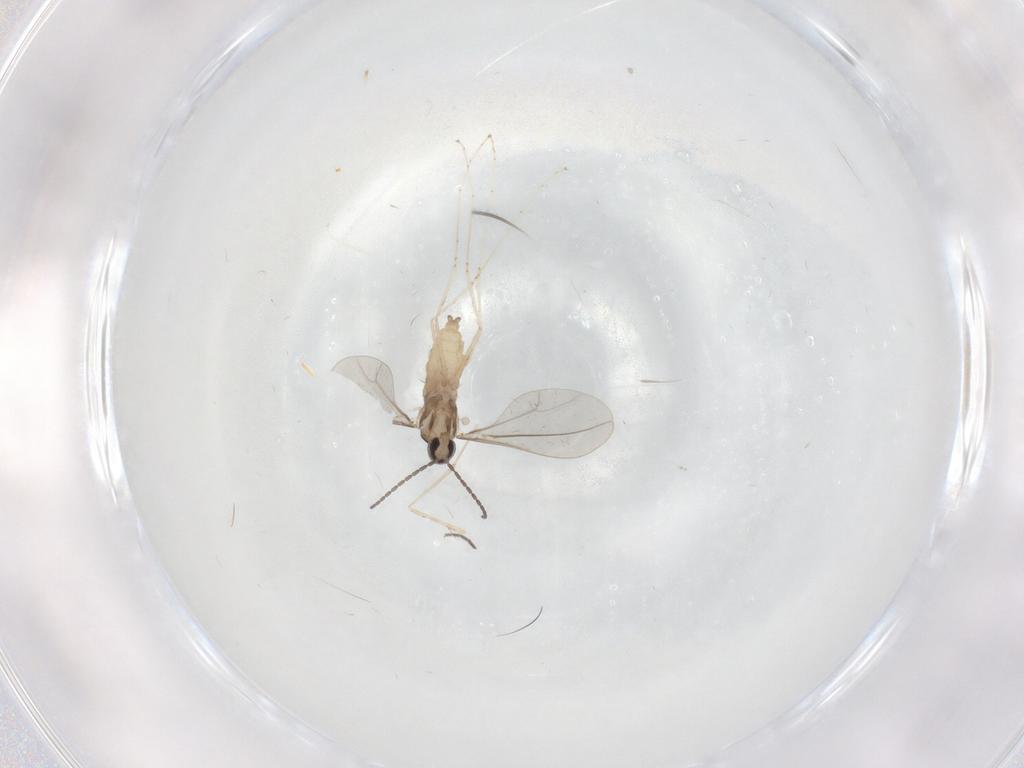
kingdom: Animalia
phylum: Arthropoda
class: Insecta
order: Diptera
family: Cecidomyiidae
